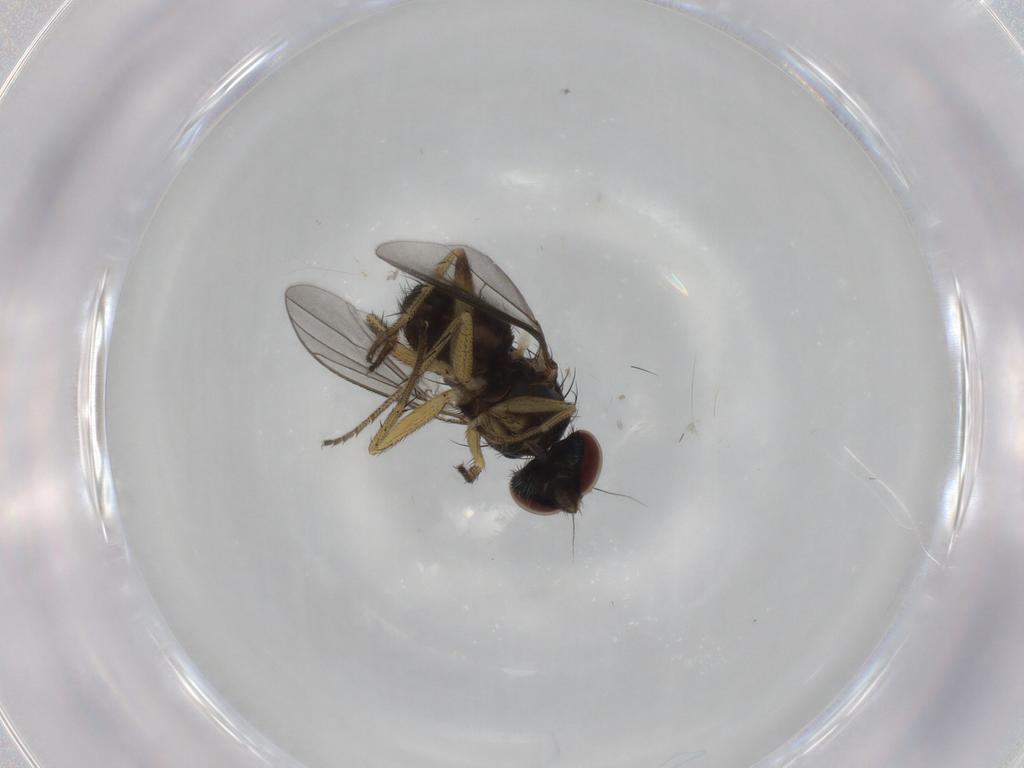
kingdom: Animalia
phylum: Arthropoda
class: Insecta
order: Diptera
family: Dolichopodidae
